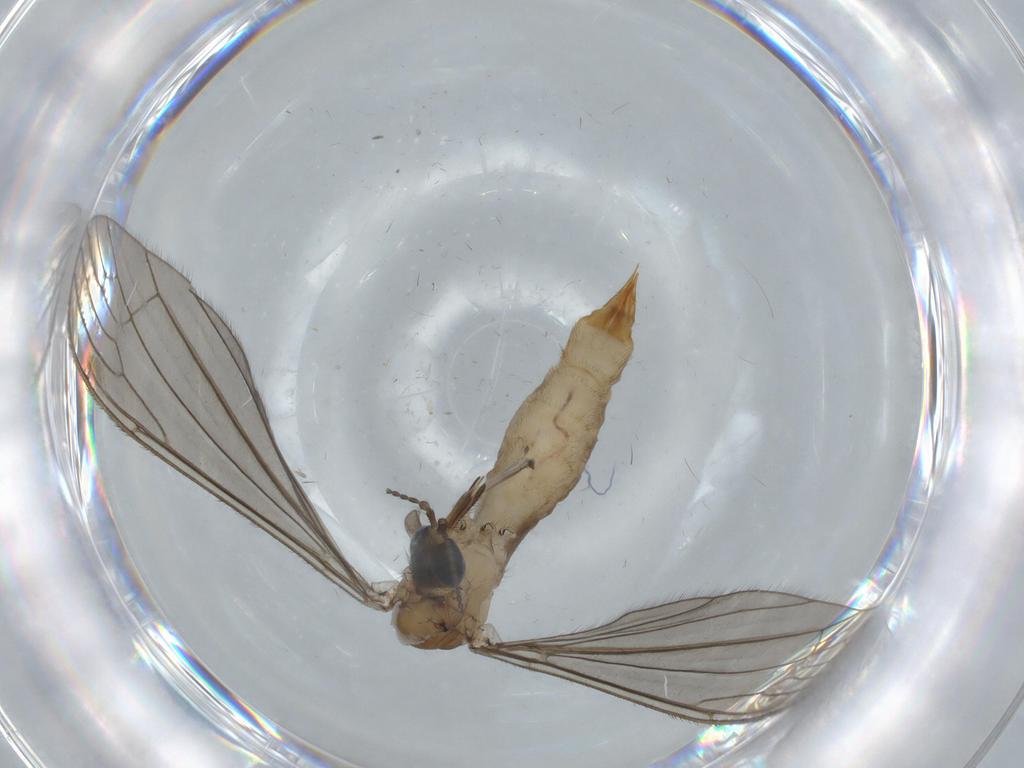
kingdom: Animalia
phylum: Arthropoda
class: Insecta
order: Diptera
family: Phoridae
